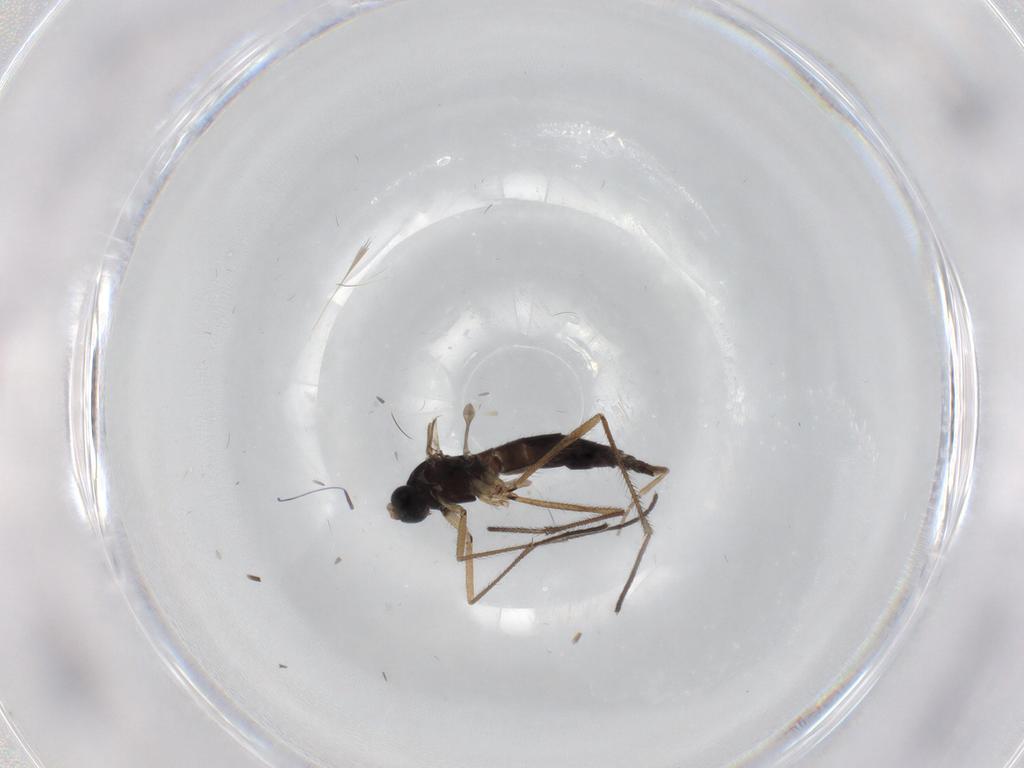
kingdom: Animalia
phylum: Arthropoda
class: Insecta
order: Diptera
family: Sciaridae
